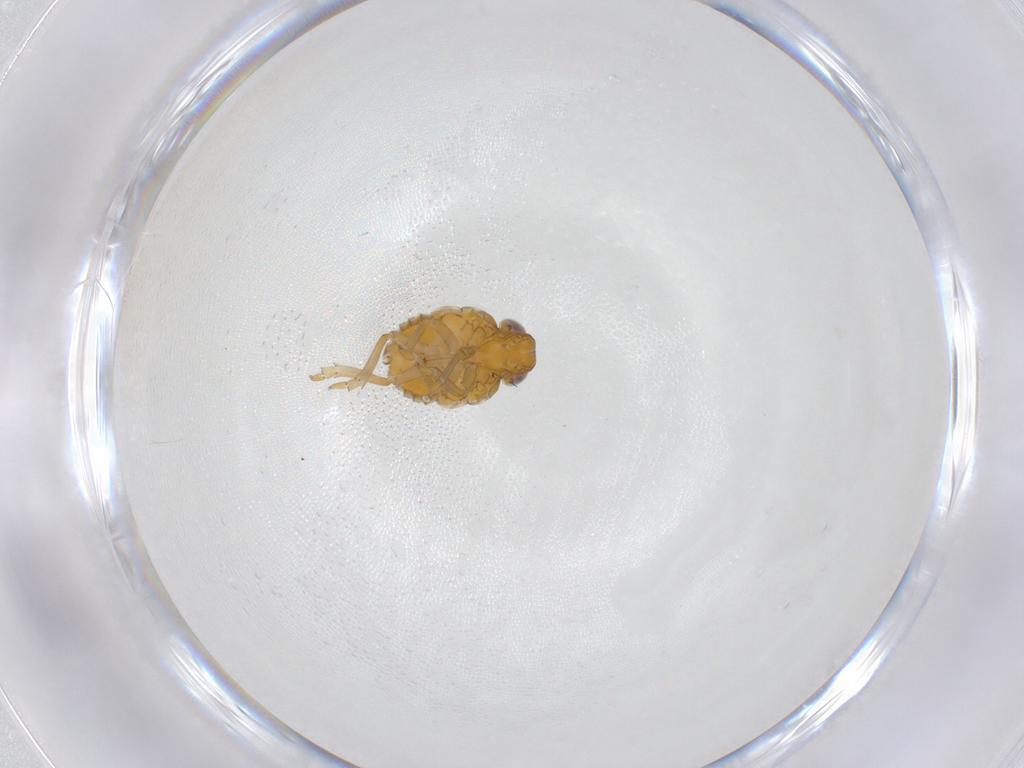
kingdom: Animalia
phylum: Arthropoda
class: Insecta
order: Hemiptera
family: Issidae
